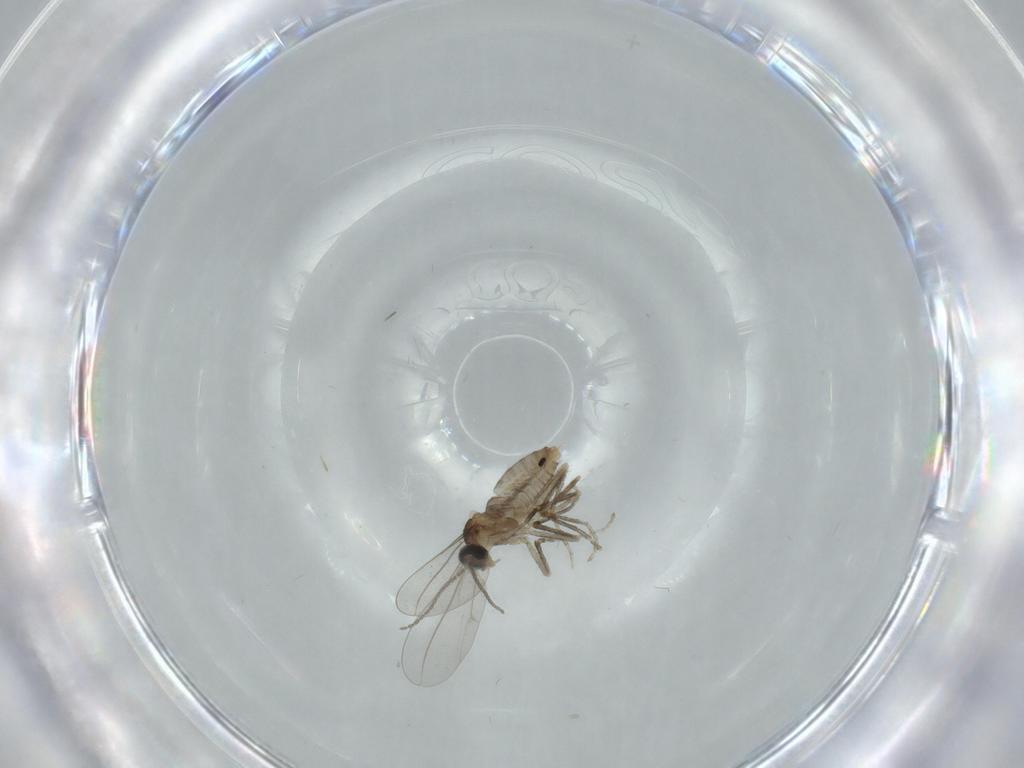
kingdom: Animalia
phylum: Arthropoda
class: Insecta
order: Diptera
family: Cecidomyiidae
